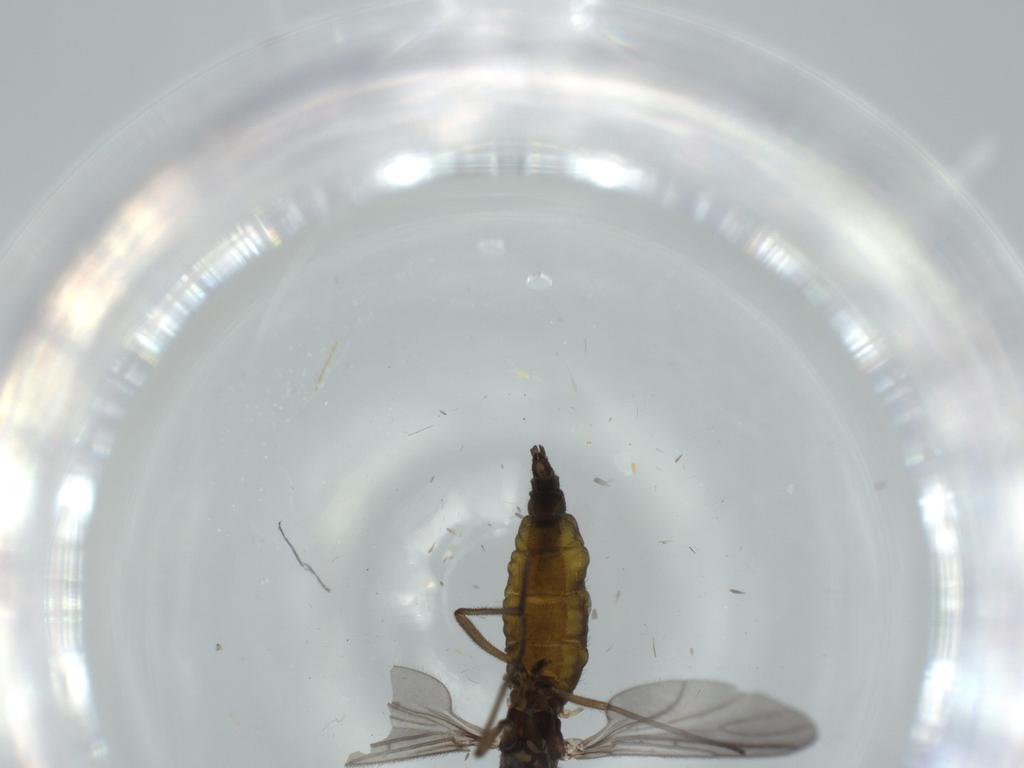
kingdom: Animalia
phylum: Arthropoda
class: Insecta
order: Diptera
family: Sciaridae
